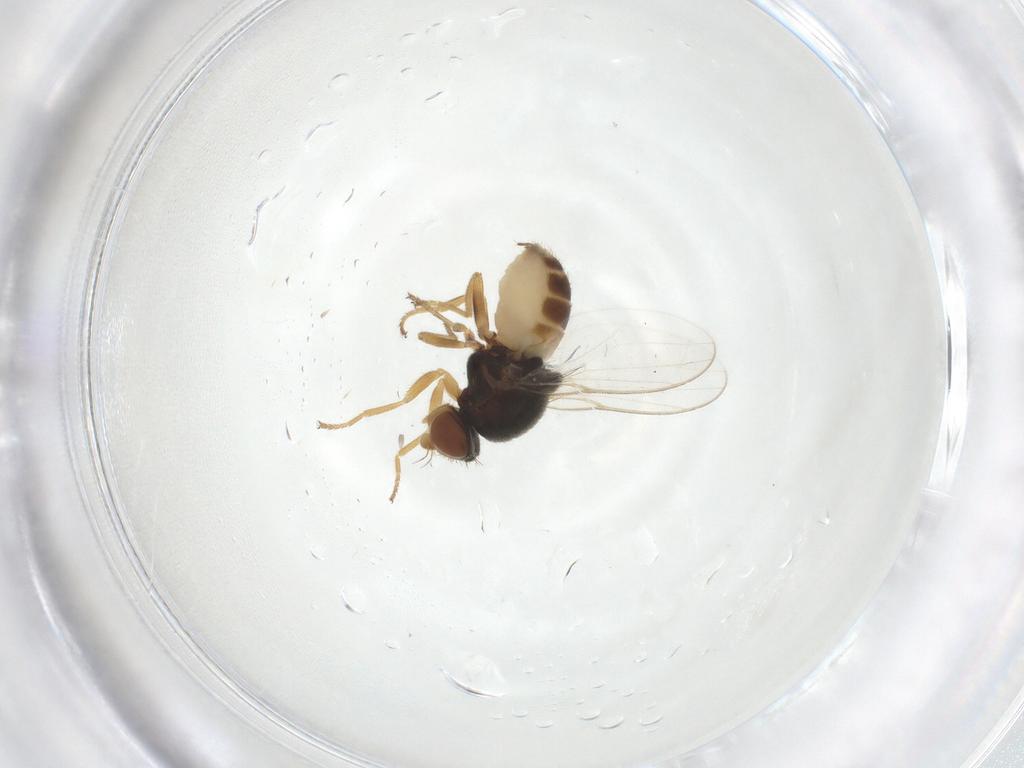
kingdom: Animalia
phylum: Arthropoda
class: Insecta
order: Diptera
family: Chloropidae
